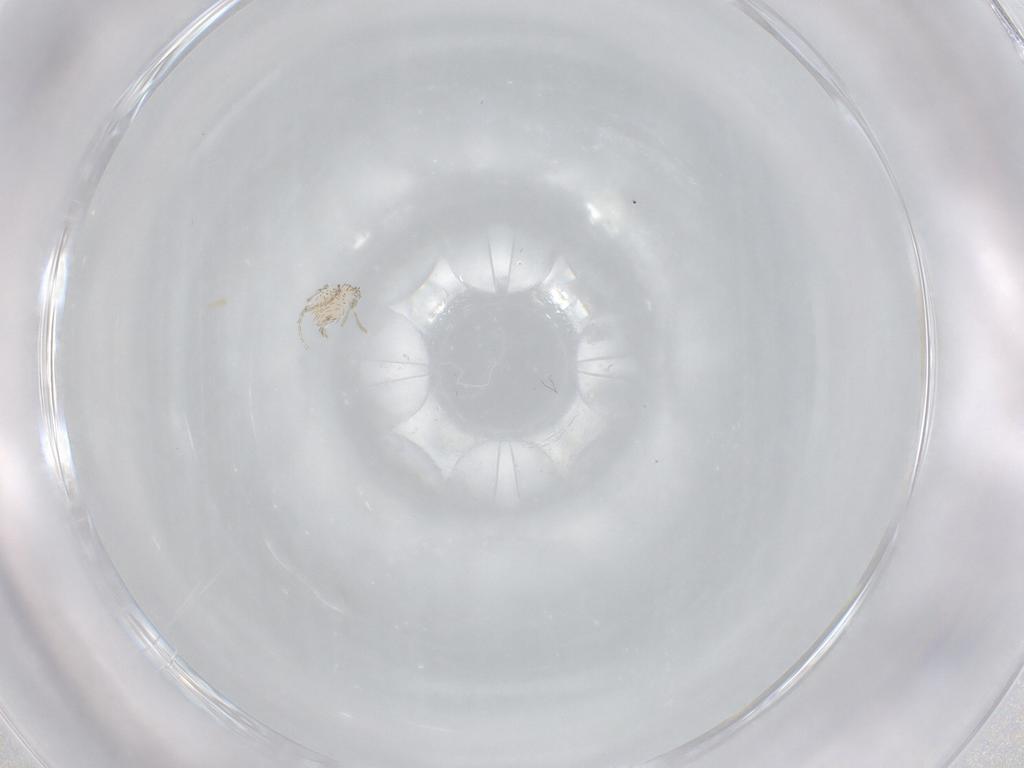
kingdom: Animalia
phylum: Arthropoda
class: Arachnida
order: Trombidiformes
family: Erythraeidae
